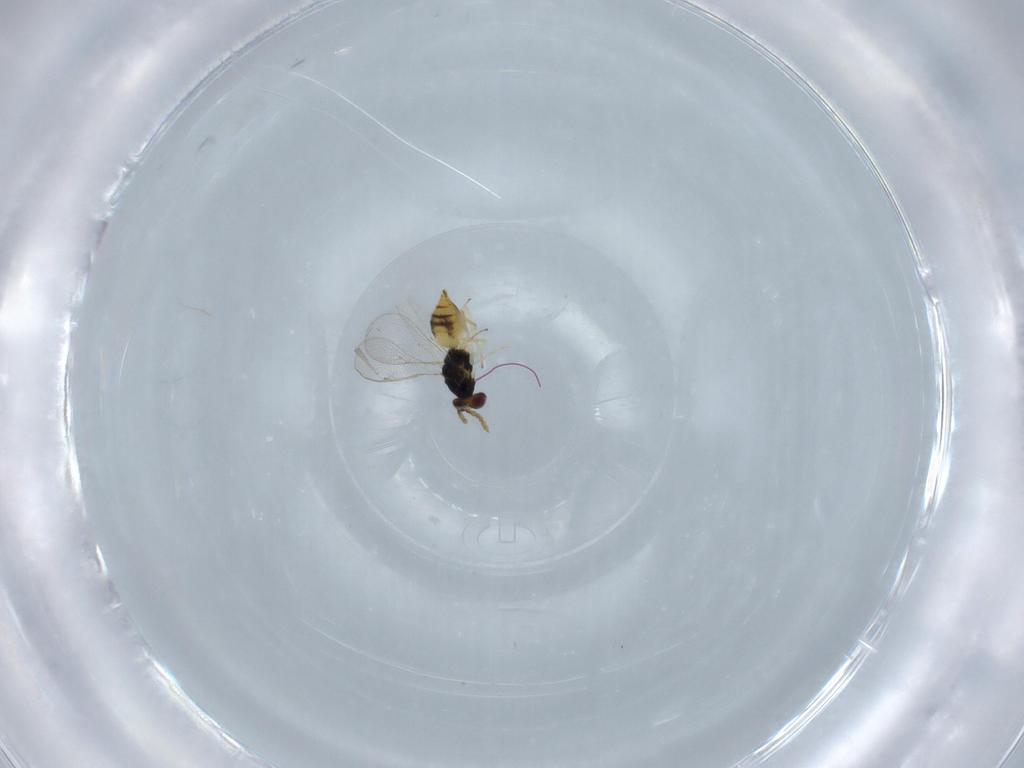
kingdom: Animalia
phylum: Arthropoda
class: Insecta
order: Hymenoptera
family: Eulophidae
